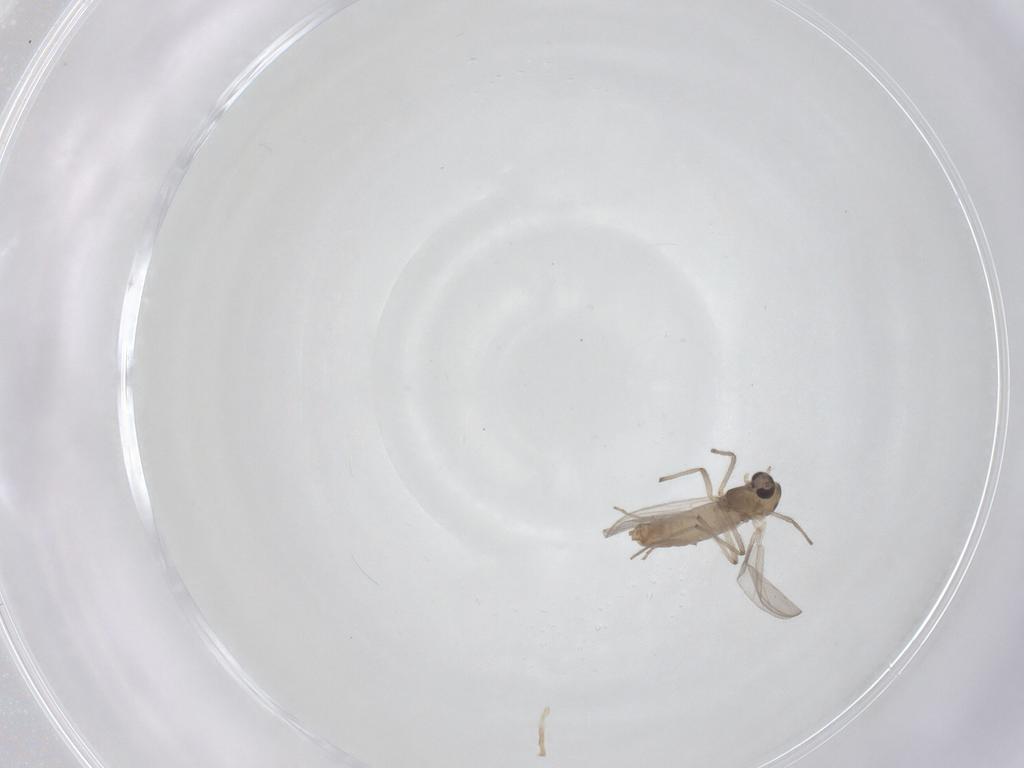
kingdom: Animalia
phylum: Arthropoda
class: Insecta
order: Diptera
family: Chironomidae
